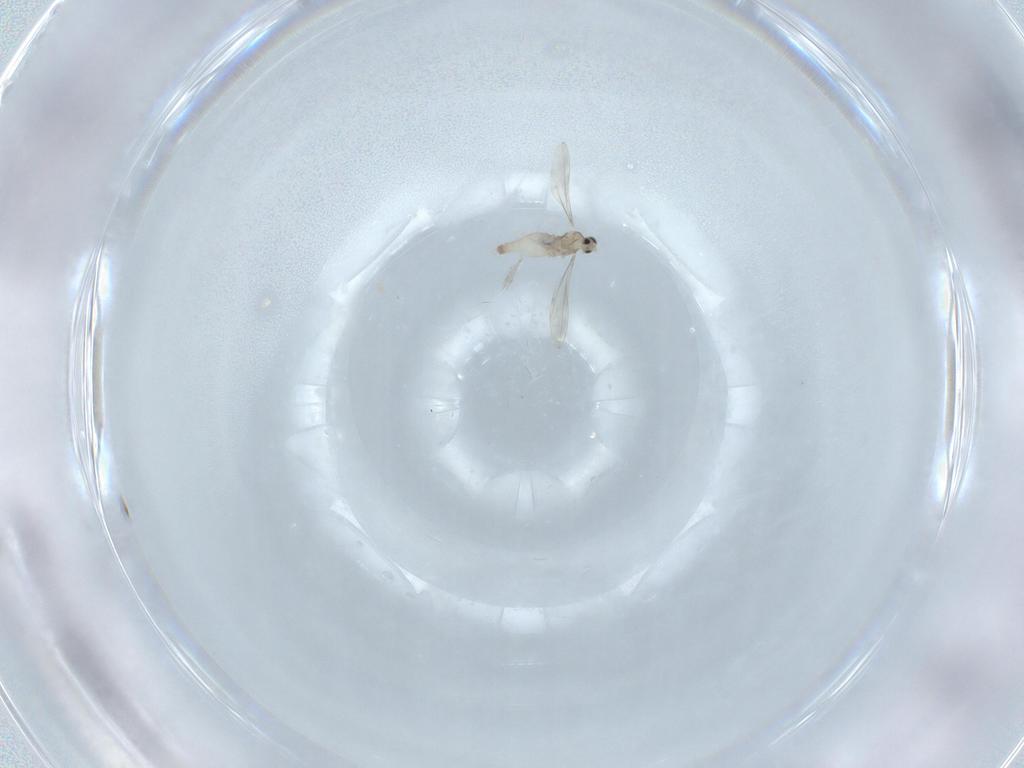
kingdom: Animalia
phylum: Arthropoda
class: Insecta
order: Diptera
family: Cecidomyiidae
